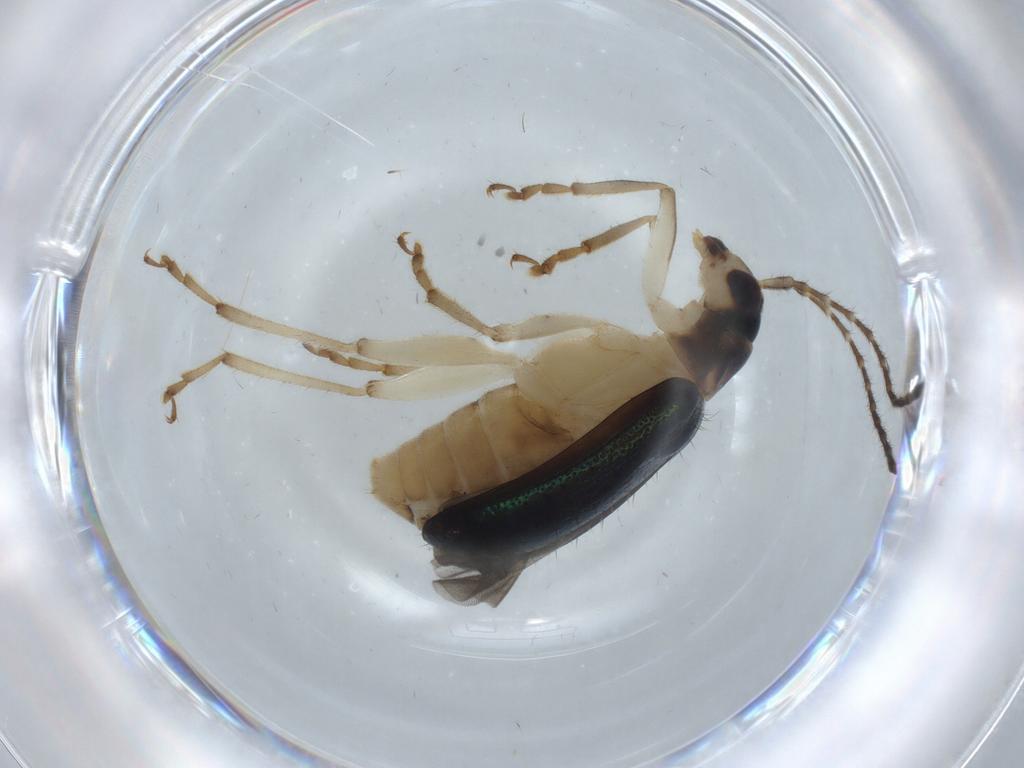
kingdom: Animalia
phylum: Arthropoda
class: Insecta
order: Coleoptera
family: Chrysomelidae
